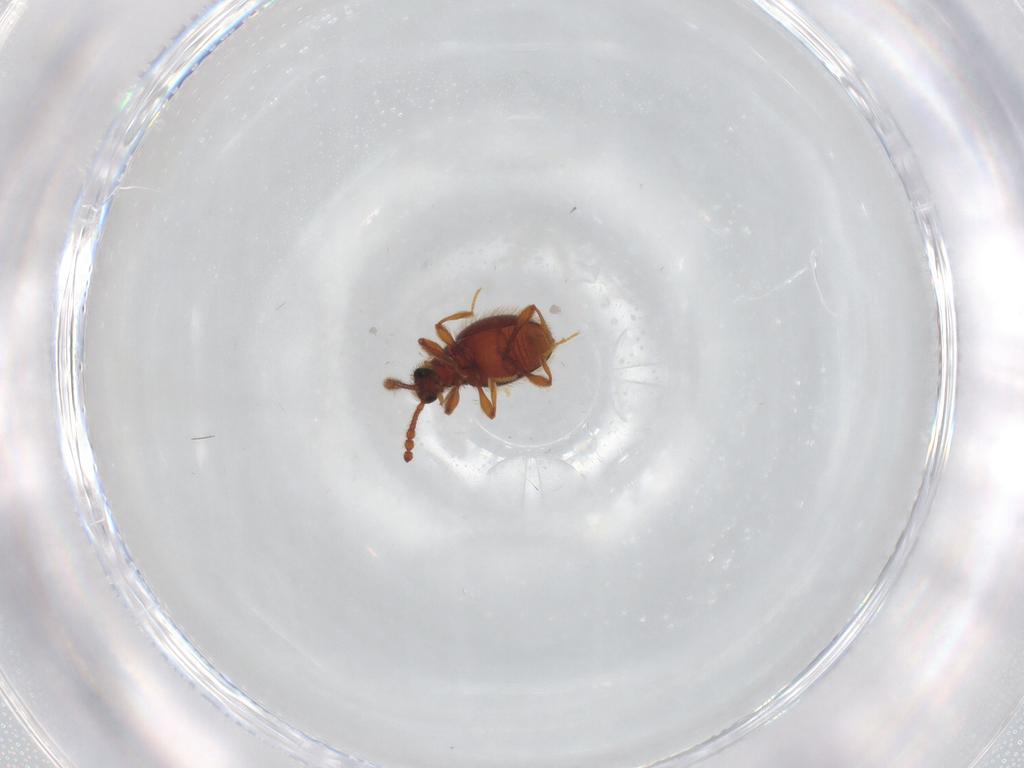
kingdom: Animalia
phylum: Arthropoda
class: Insecta
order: Coleoptera
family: Staphylinidae
